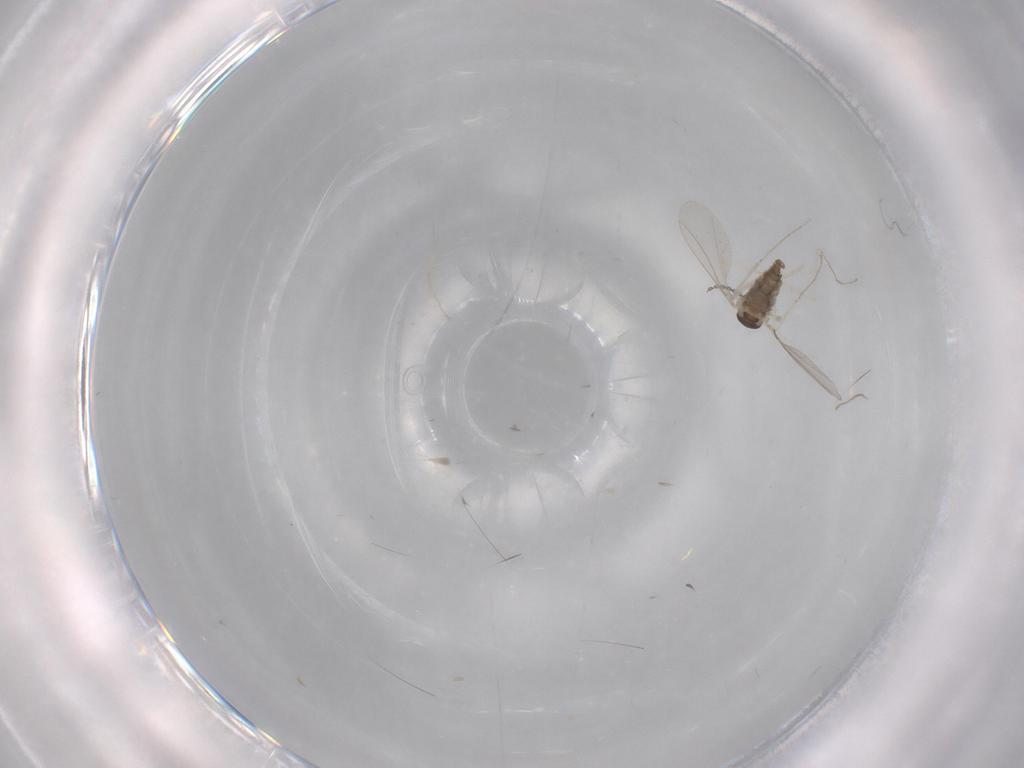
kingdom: Animalia
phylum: Arthropoda
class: Insecta
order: Diptera
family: Cecidomyiidae
